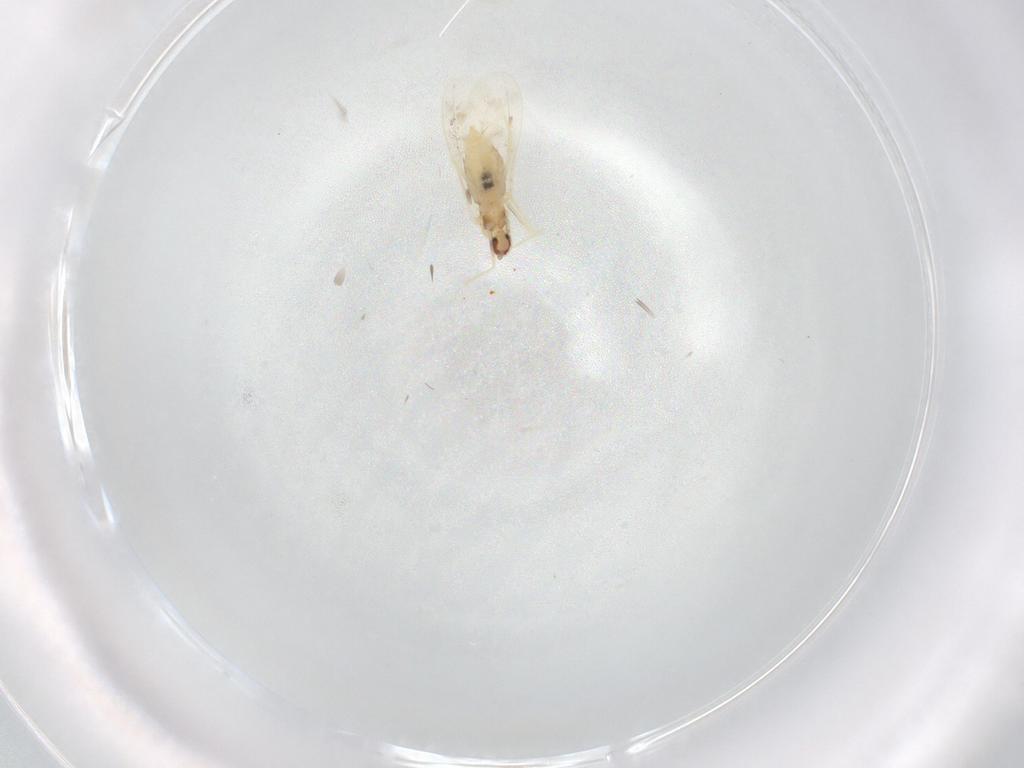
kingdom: Animalia
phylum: Arthropoda
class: Insecta
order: Diptera
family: Cecidomyiidae
